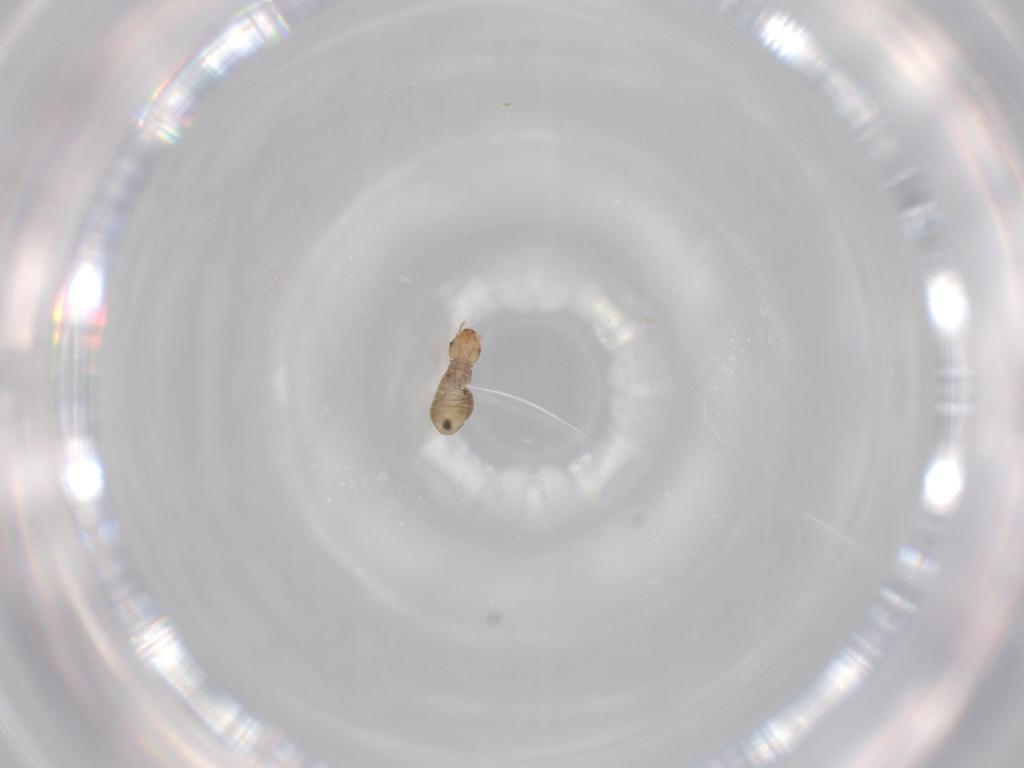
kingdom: Animalia
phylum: Arthropoda
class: Insecta
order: Psocodea
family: Liposcelididae
